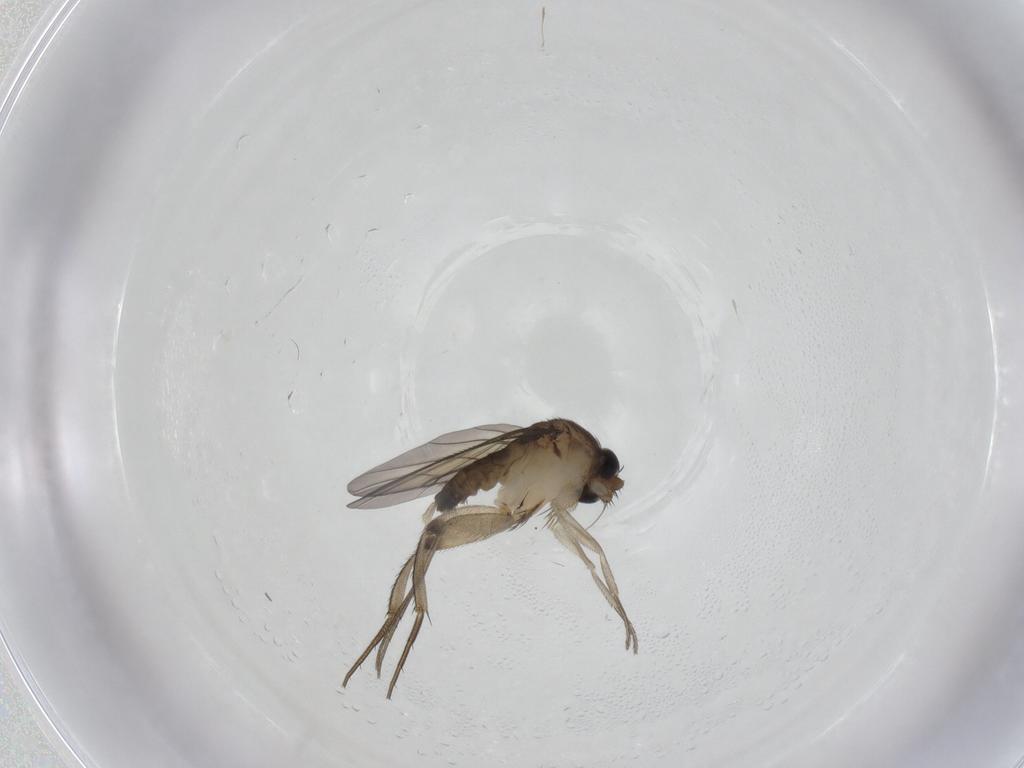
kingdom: Animalia
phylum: Arthropoda
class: Insecta
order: Diptera
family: Phoridae
